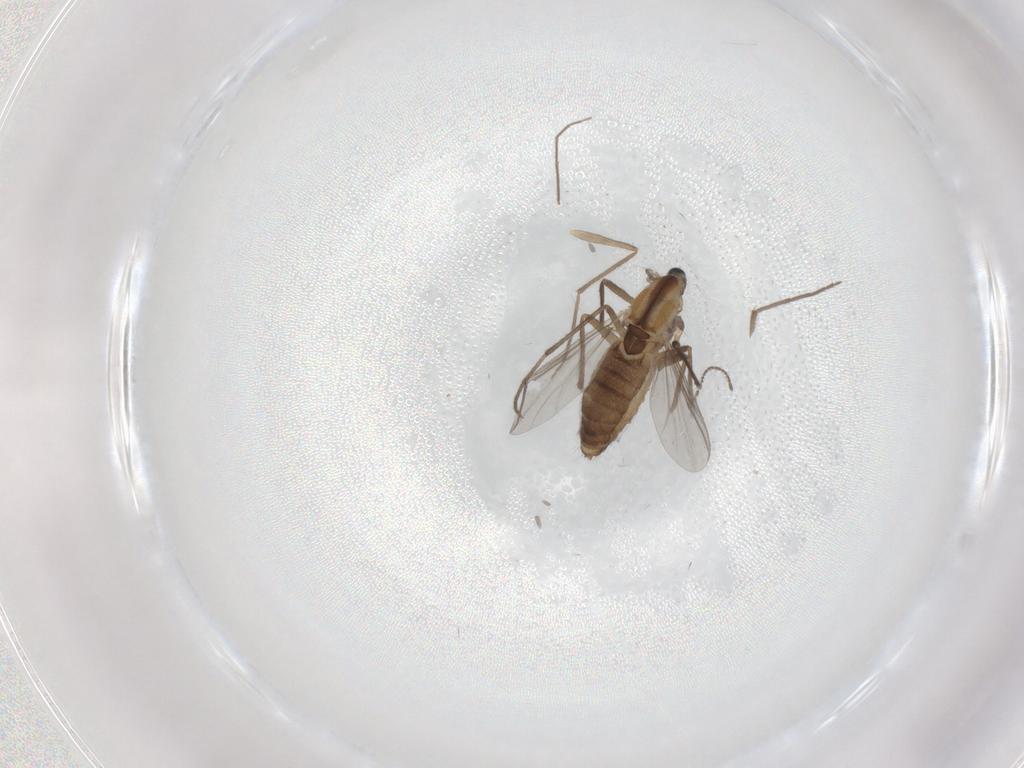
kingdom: Animalia
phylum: Arthropoda
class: Insecta
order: Diptera
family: Chironomidae
